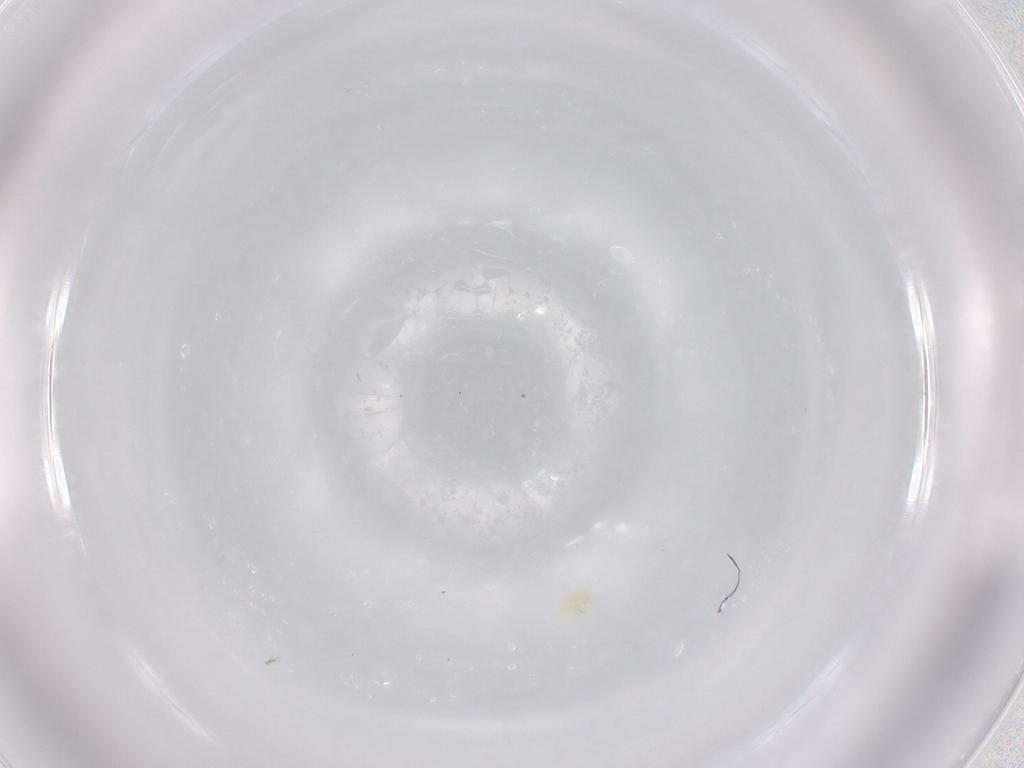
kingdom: Animalia
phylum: Arthropoda
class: Arachnida
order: Trombidiformes
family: Bdellidae
